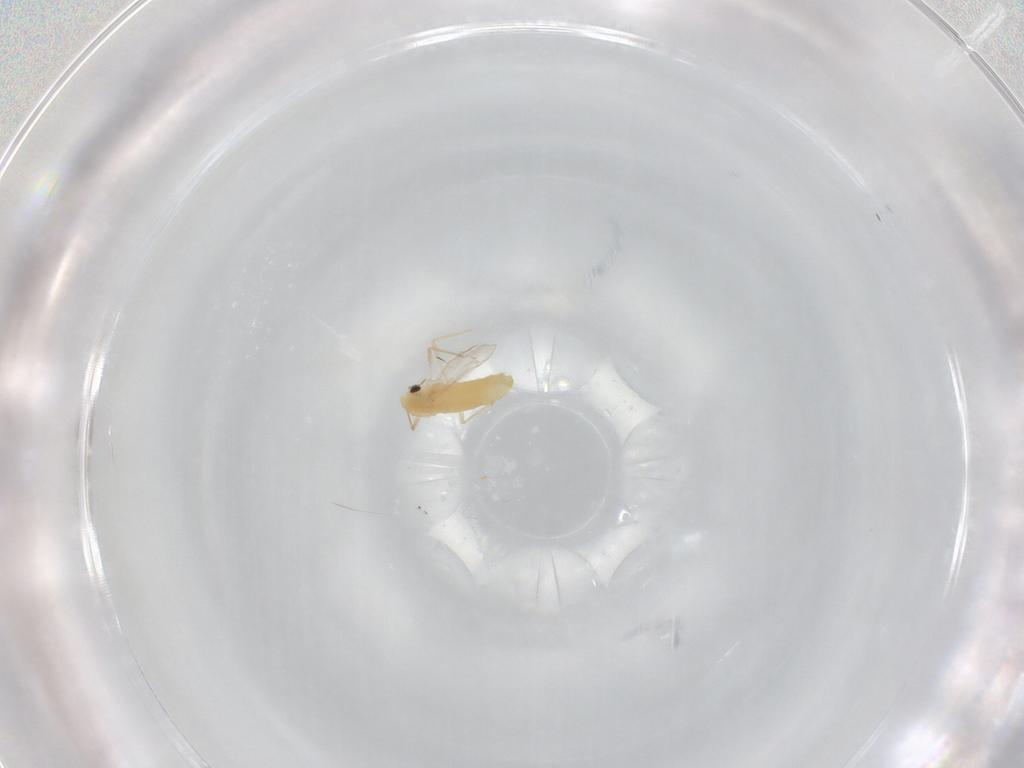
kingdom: Animalia
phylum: Arthropoda
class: Insecta
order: Diptera
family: Chironomidae
